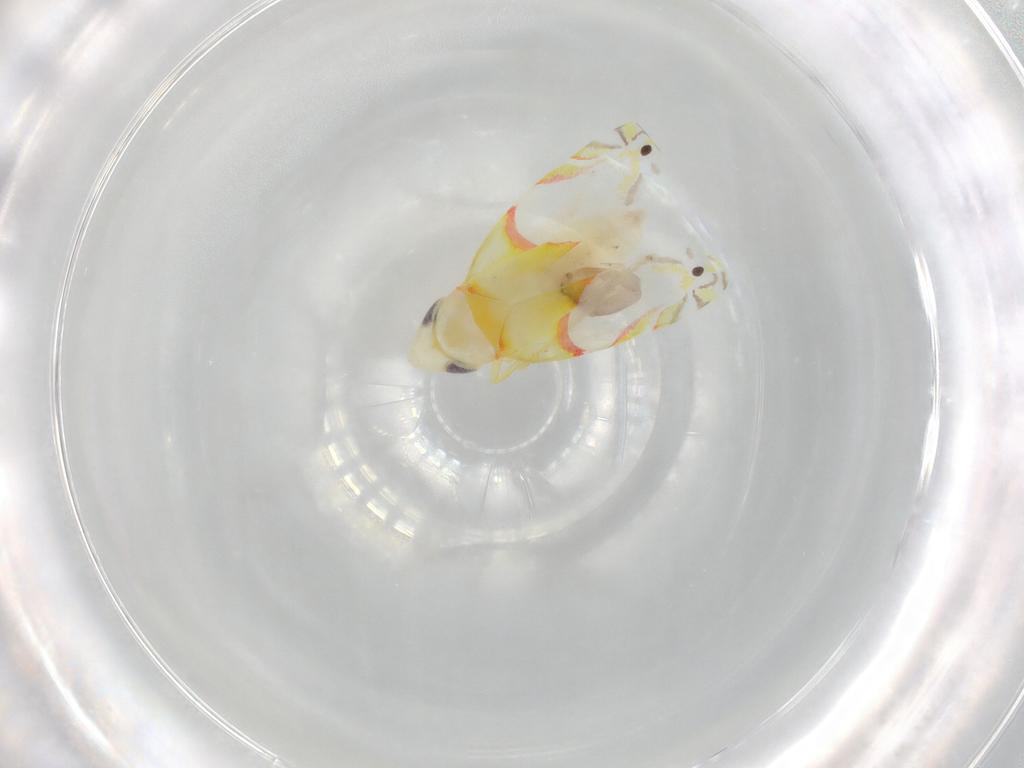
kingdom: Animalia
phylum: Arthropoda
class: Insecta
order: Hemiptera
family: Cicadellidae
